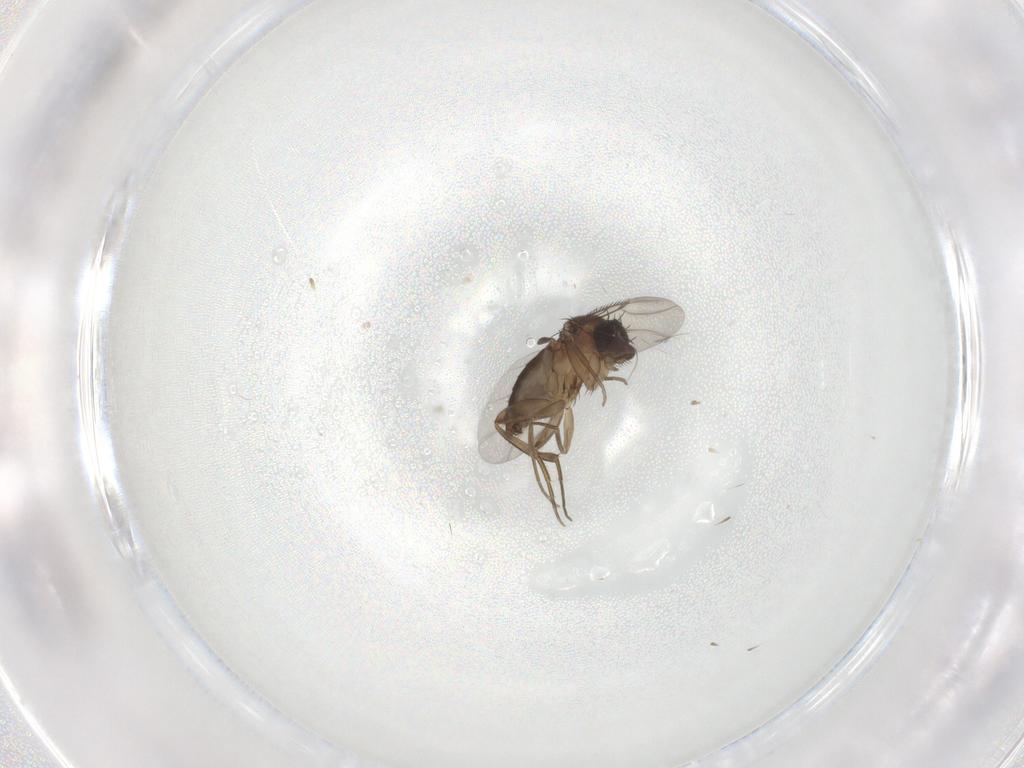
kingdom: Animalia
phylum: Arthropoda
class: Insecta
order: Diptera
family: Phoridae
